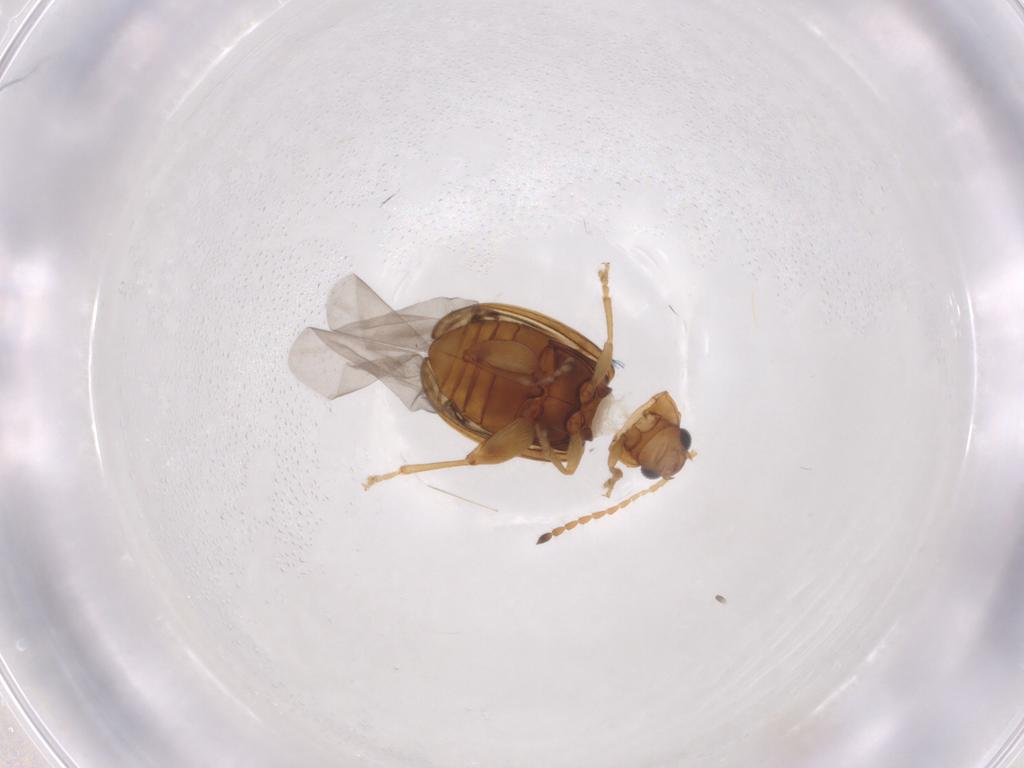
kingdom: Animalia
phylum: Arthropoda
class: Insecta
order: Coleoptera
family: Chrysomelidae
